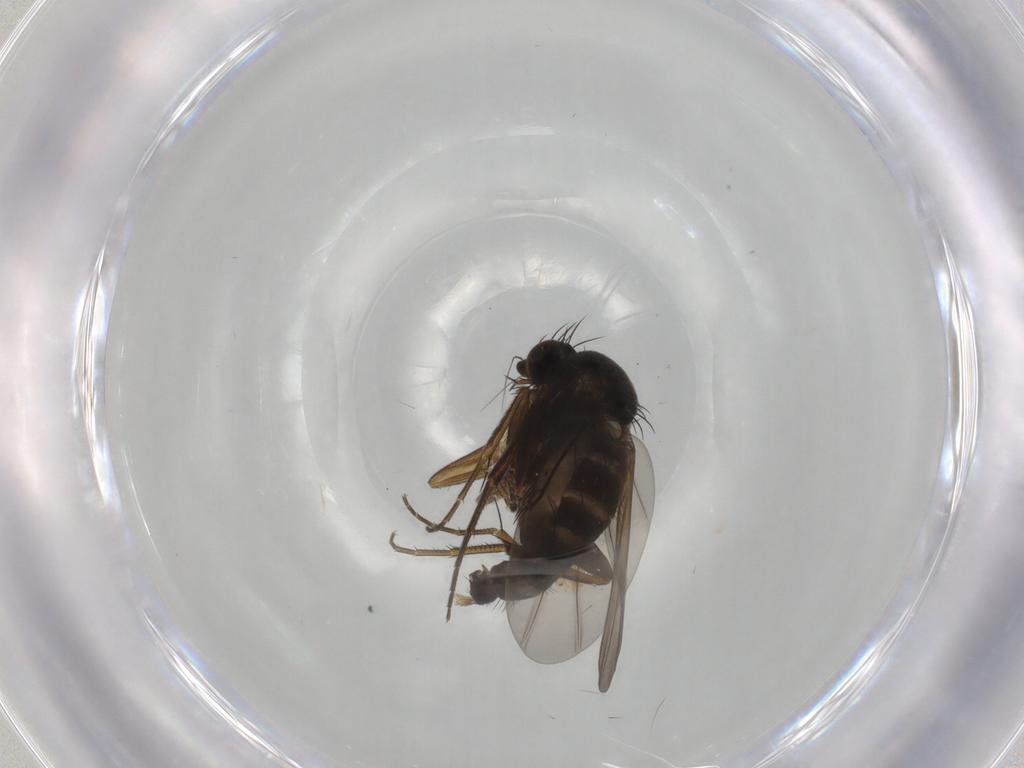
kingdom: Animalia
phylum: Arthropoda
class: Insecta
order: Diptera
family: Phoridae
